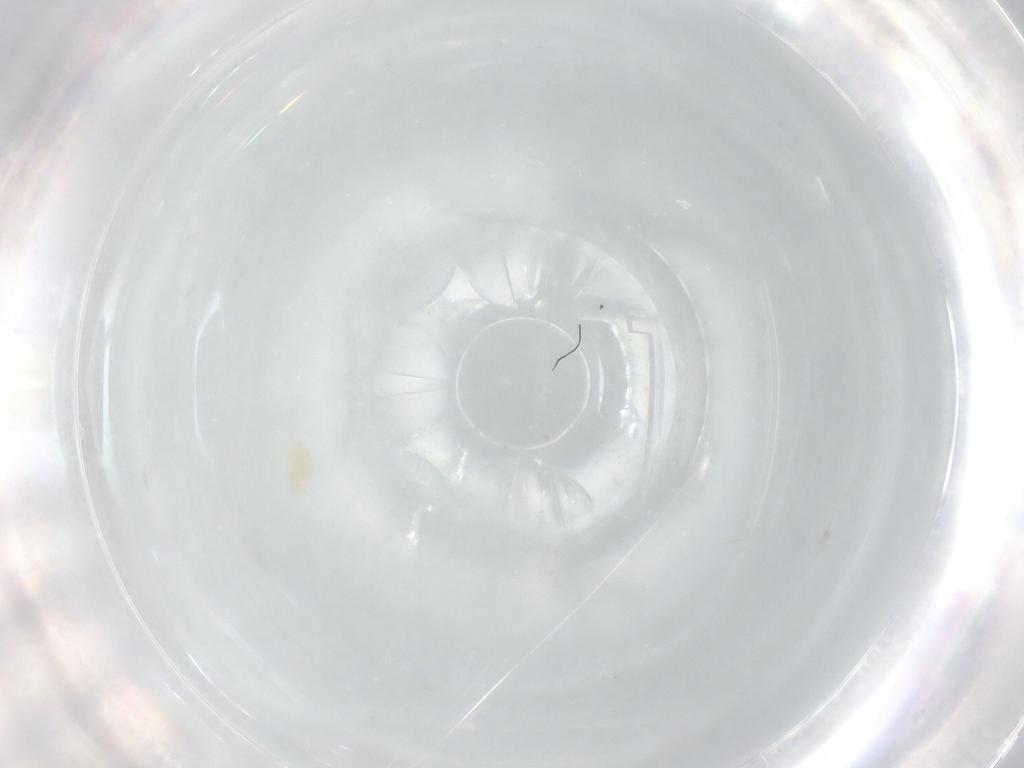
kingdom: Animalia
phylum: Arthropoda
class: Arachnida
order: Trombidiformes
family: Eupodidae
